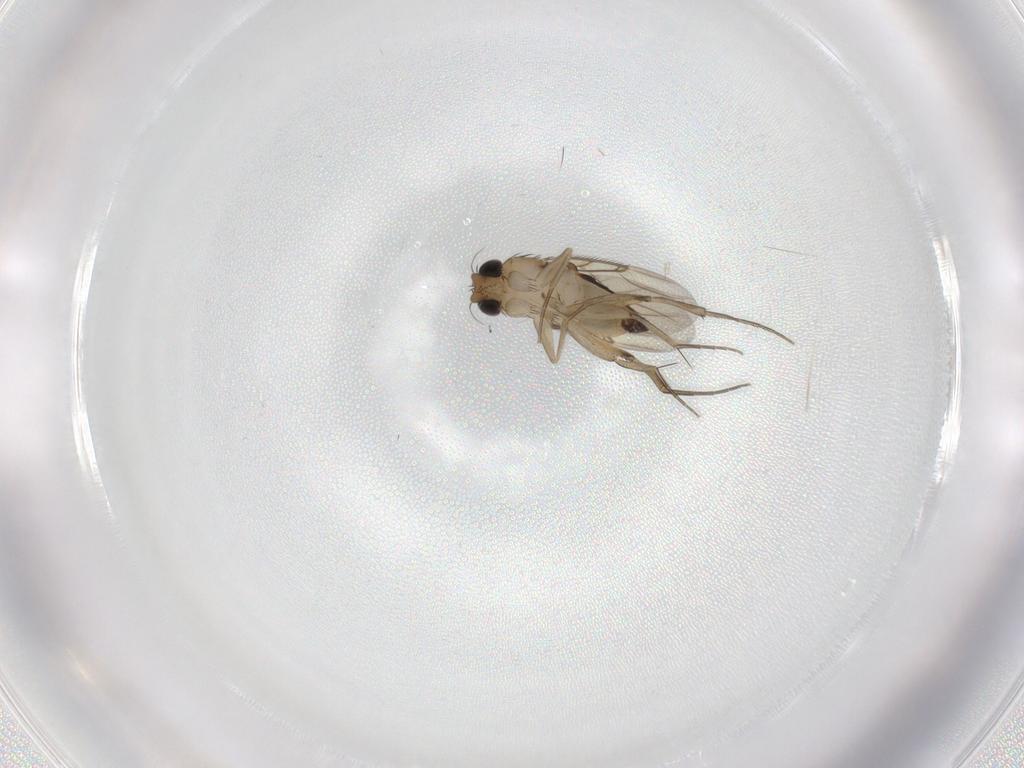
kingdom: Animalia
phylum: Arthropoda
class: Insecta
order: Diptera
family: Phoridae
